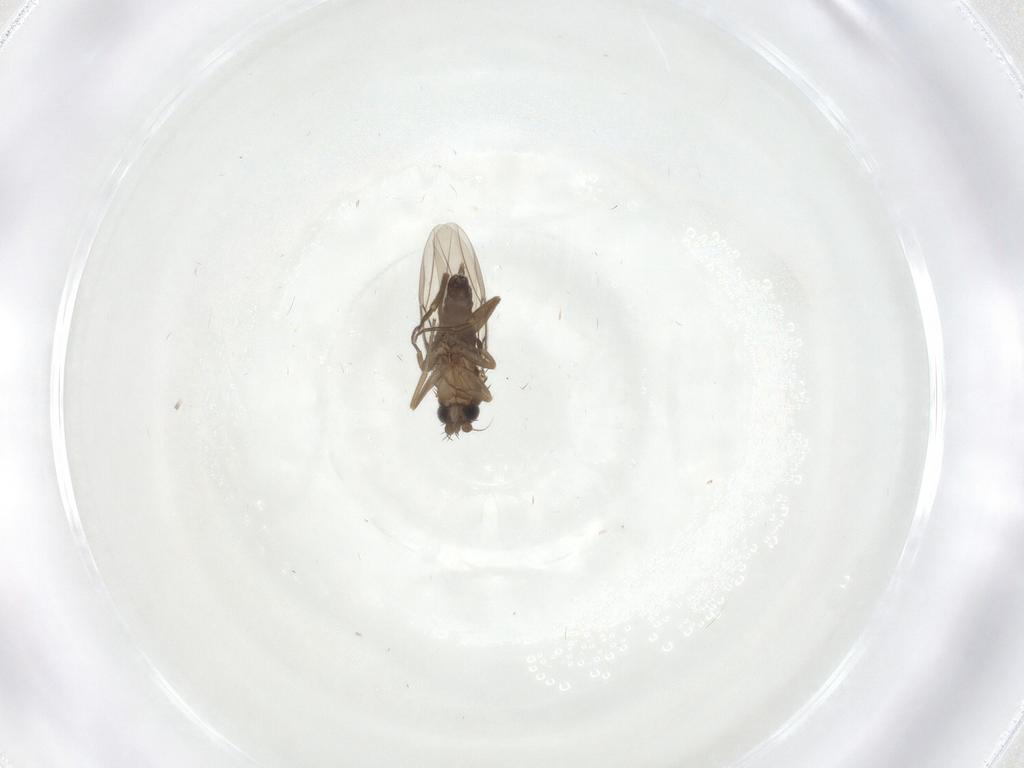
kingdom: Animalia
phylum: Arthropoda
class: Insecta
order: Diptera
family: Phoridae
